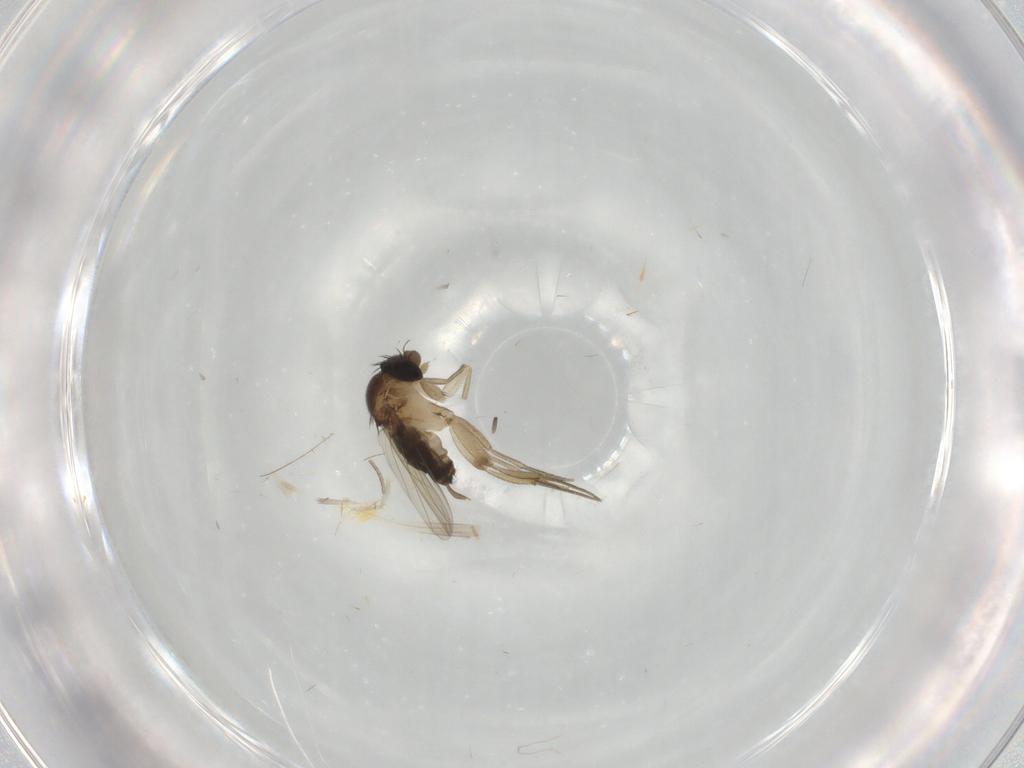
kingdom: Animalia
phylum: Arthropoda
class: Insecta
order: Diptera
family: Cecidomyiidae
